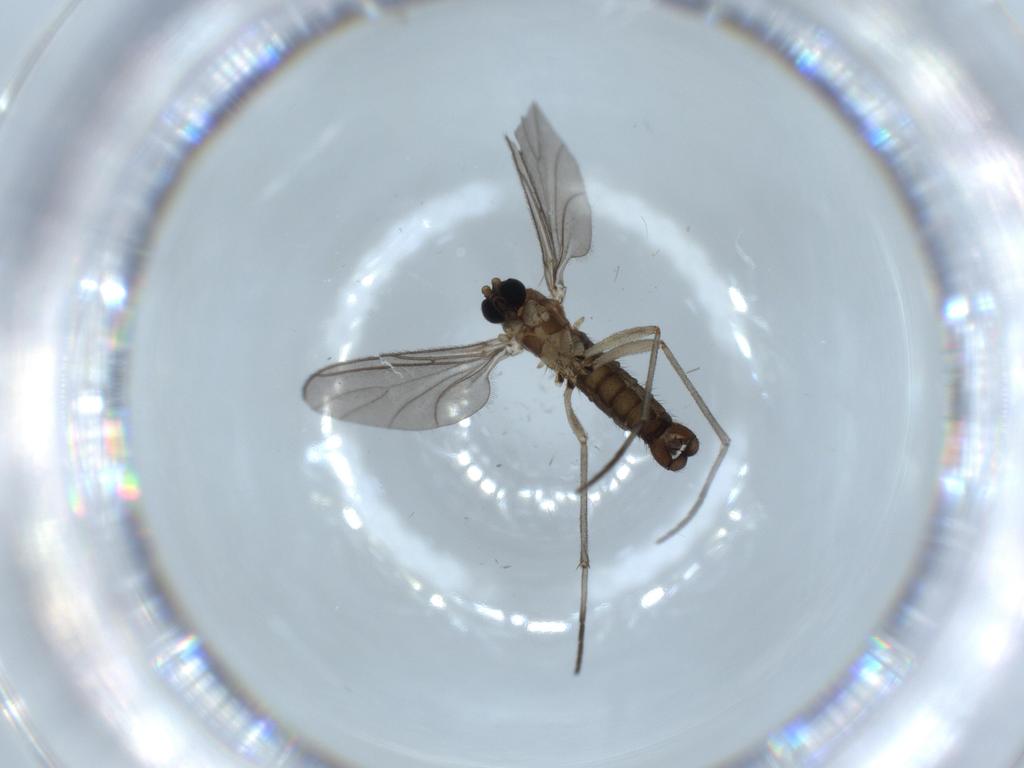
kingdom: Animalia
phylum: Arthropoda
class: Insecta
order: Diptera
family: Sciaridae
